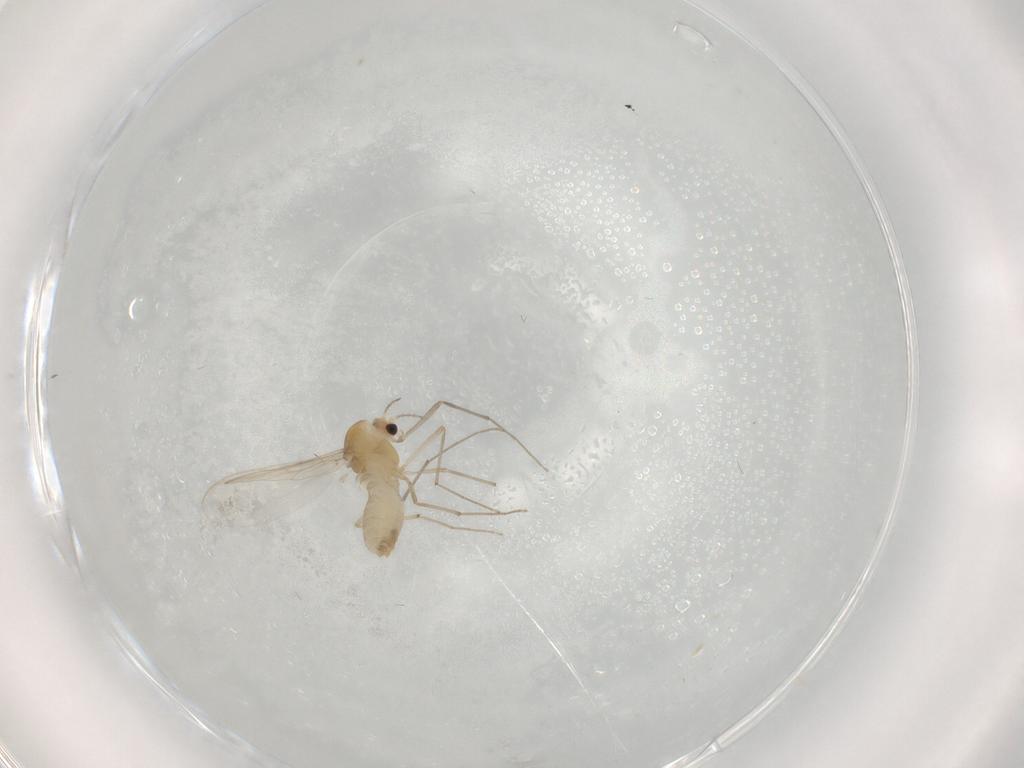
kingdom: Animalia
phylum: Arthropoda
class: Insecta
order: Diptera
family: Chironomidae
